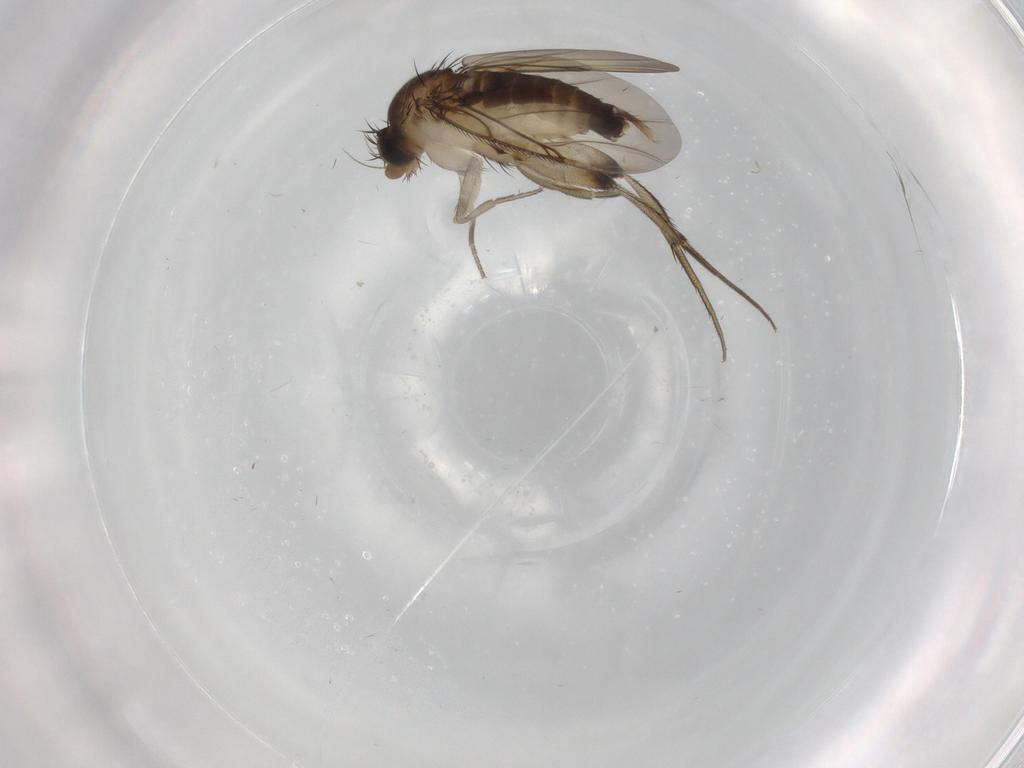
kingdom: Animalia
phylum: Arthropoda
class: Insecta
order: Diptera
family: Phoridae
